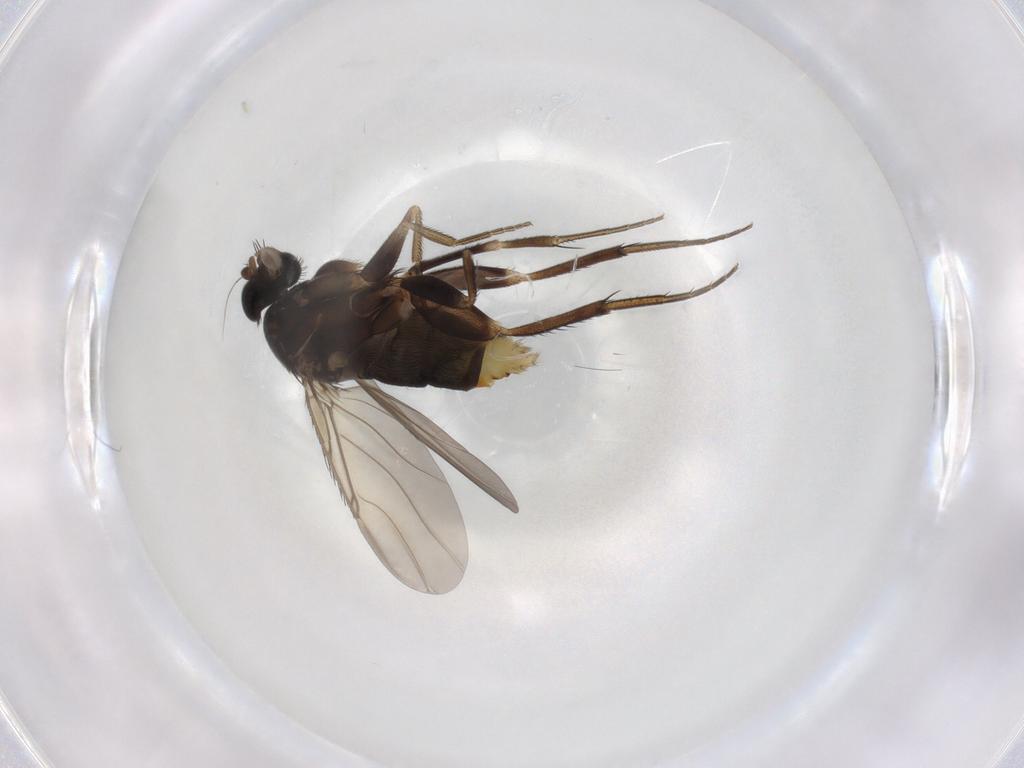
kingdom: Animalia
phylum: Arthropoda
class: Insecta
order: Diptera
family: Phoridae
